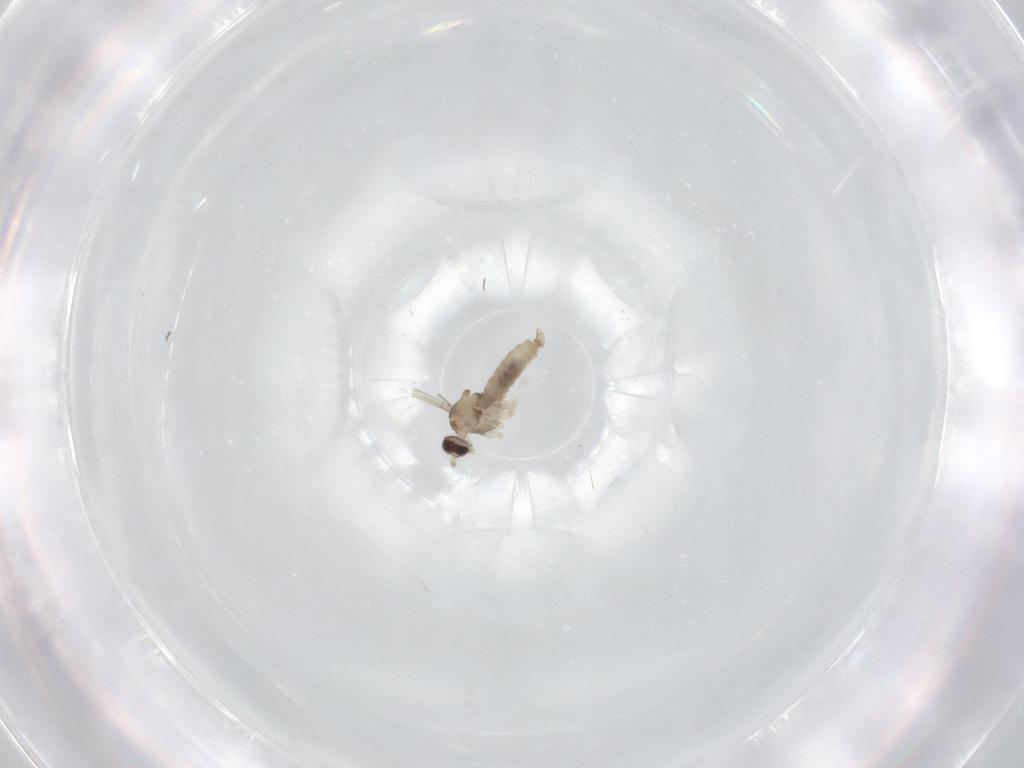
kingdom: Animalia
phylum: Arthropoda
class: Insecta
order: Diptera
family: Cecidomyiidae
